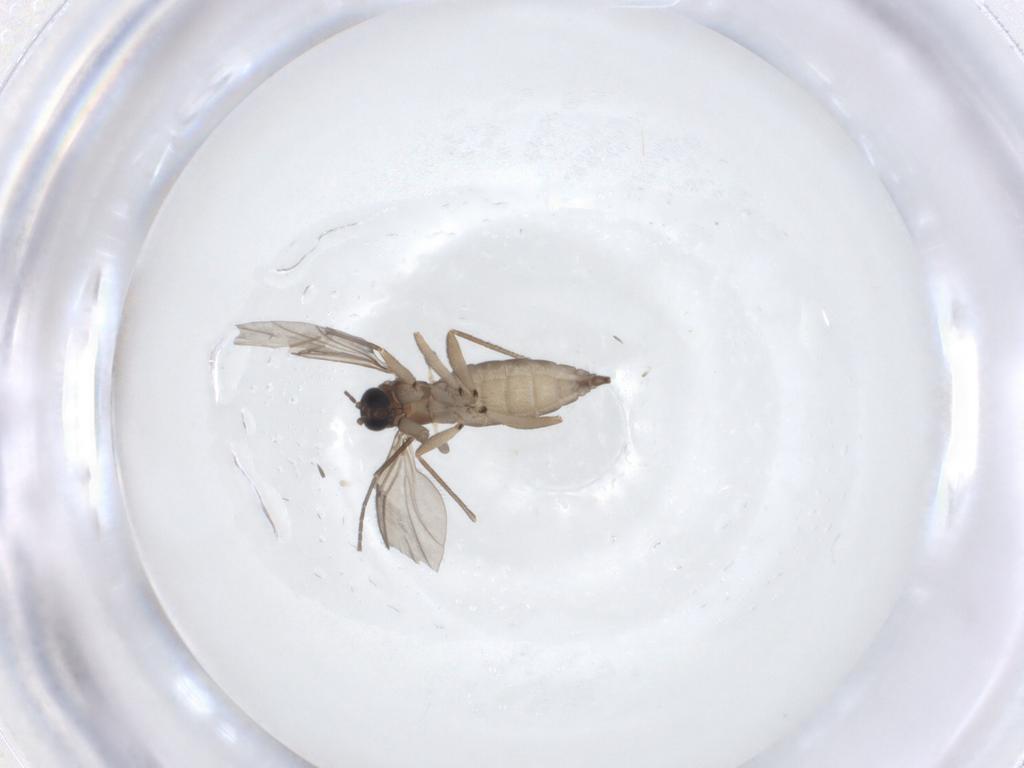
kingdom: Animalia
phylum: Arthropoda
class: Insecta
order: Diptera
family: Sciaridae
